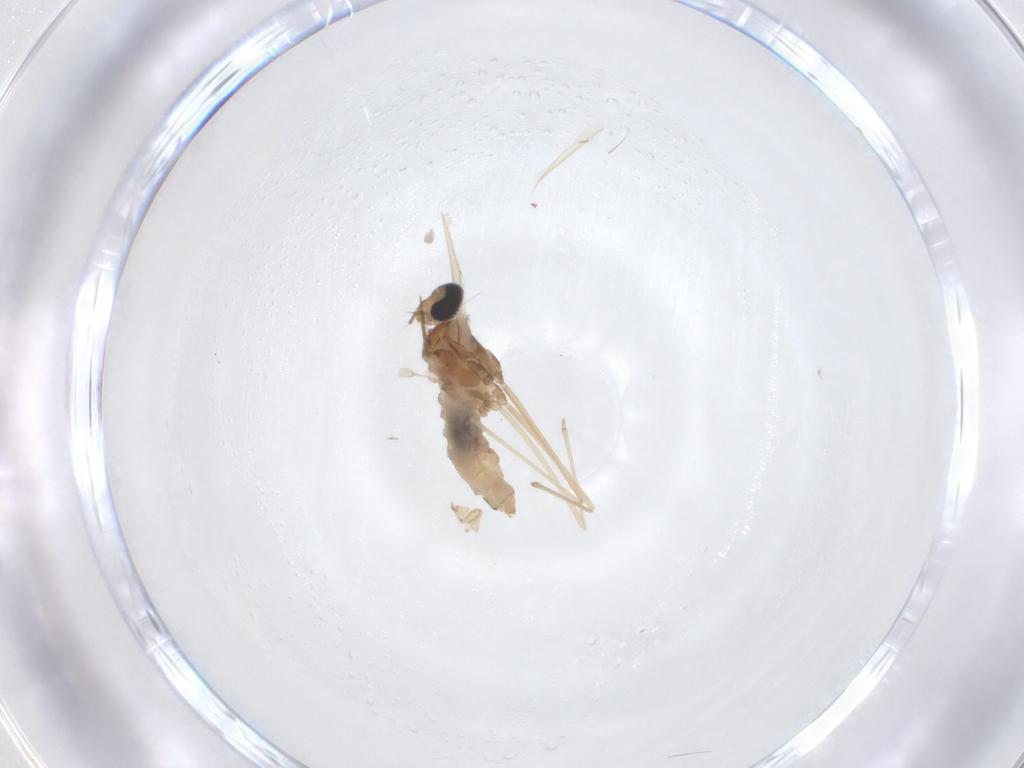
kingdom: Animalia
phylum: Arthropoda
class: Insecta
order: Diptera
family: Cecidomyiidae
